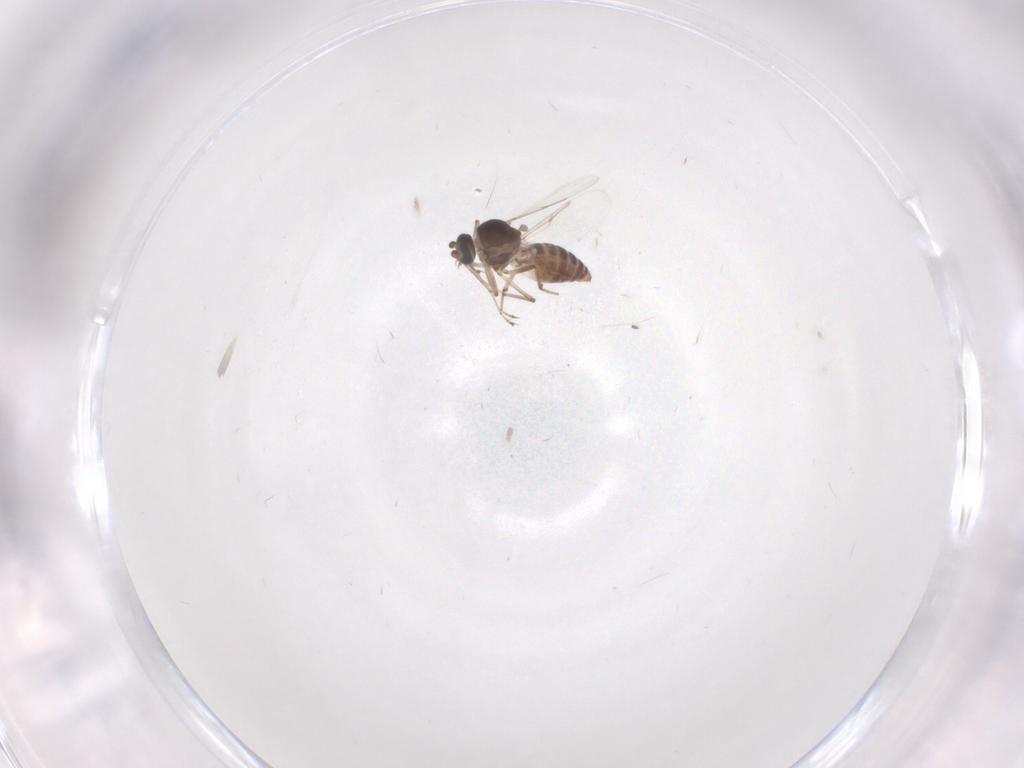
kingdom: Animalia
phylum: Arthropoda
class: Insecta
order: Diptera
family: Ceratopogonidae
